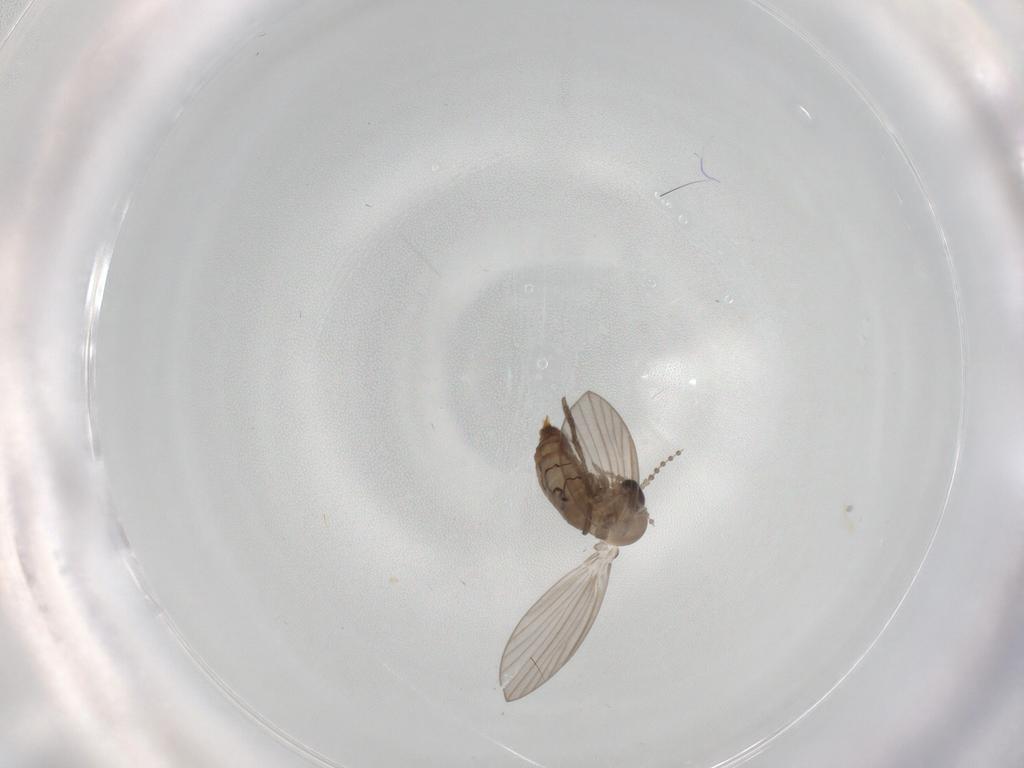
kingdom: Animalia
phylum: Arthropoda
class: Insecta
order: Diptera
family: Psychodidae
